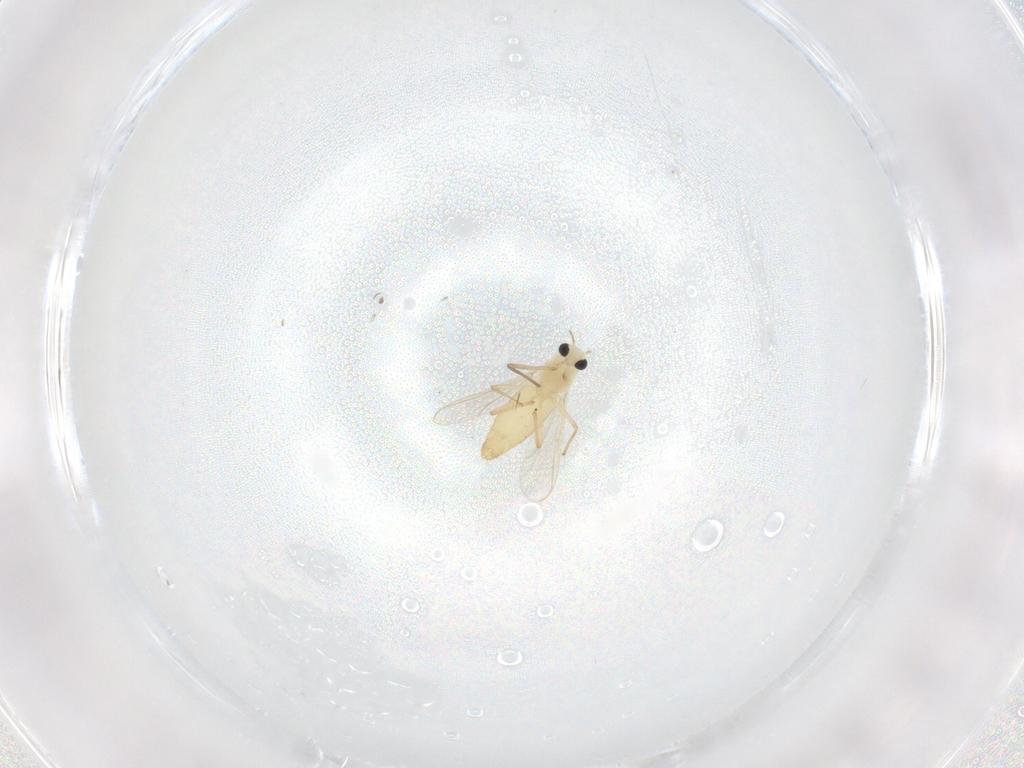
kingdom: Animalia
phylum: Arthropoda
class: Insecta
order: Diptera
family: Chironomidae
